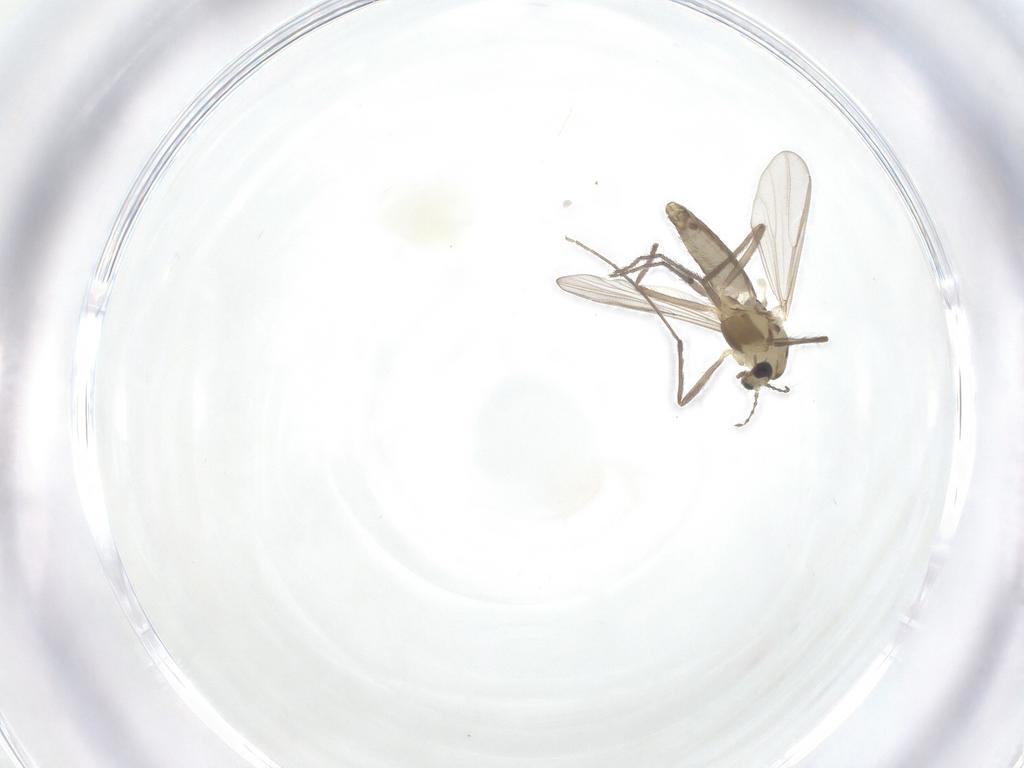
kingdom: Animalia
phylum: Arthropoda
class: Insecta
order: Diptera
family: Chironomidae
